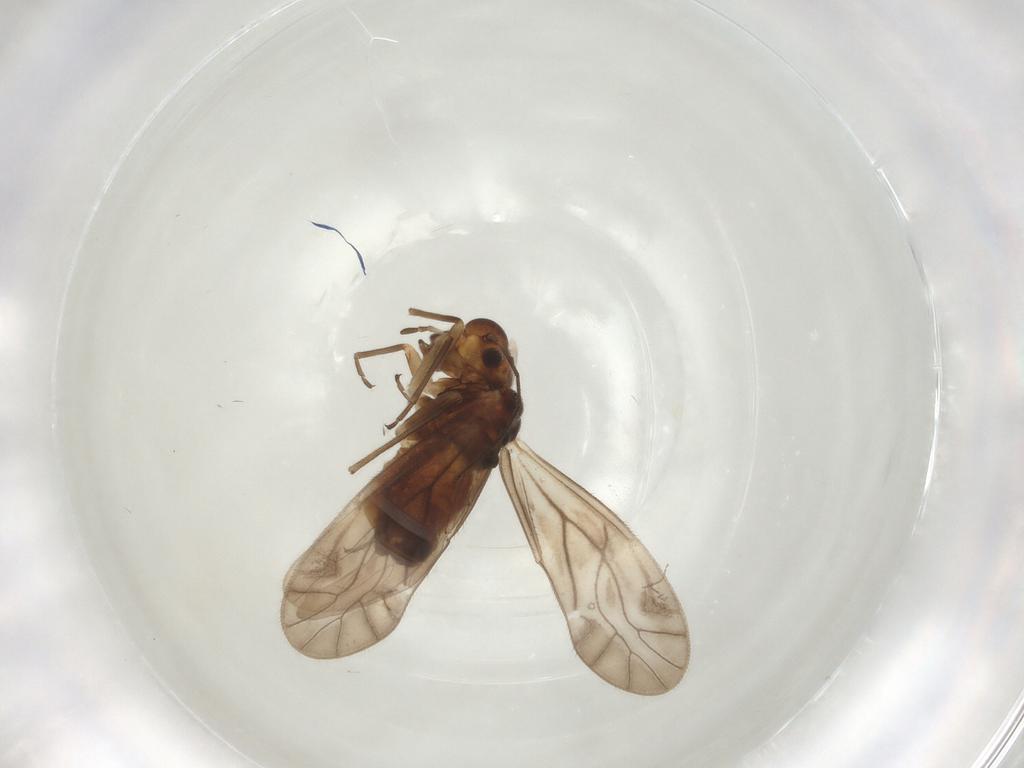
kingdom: Animalia
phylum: Arthropoda
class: Insecta
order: Psocodea
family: Philotarsidae
